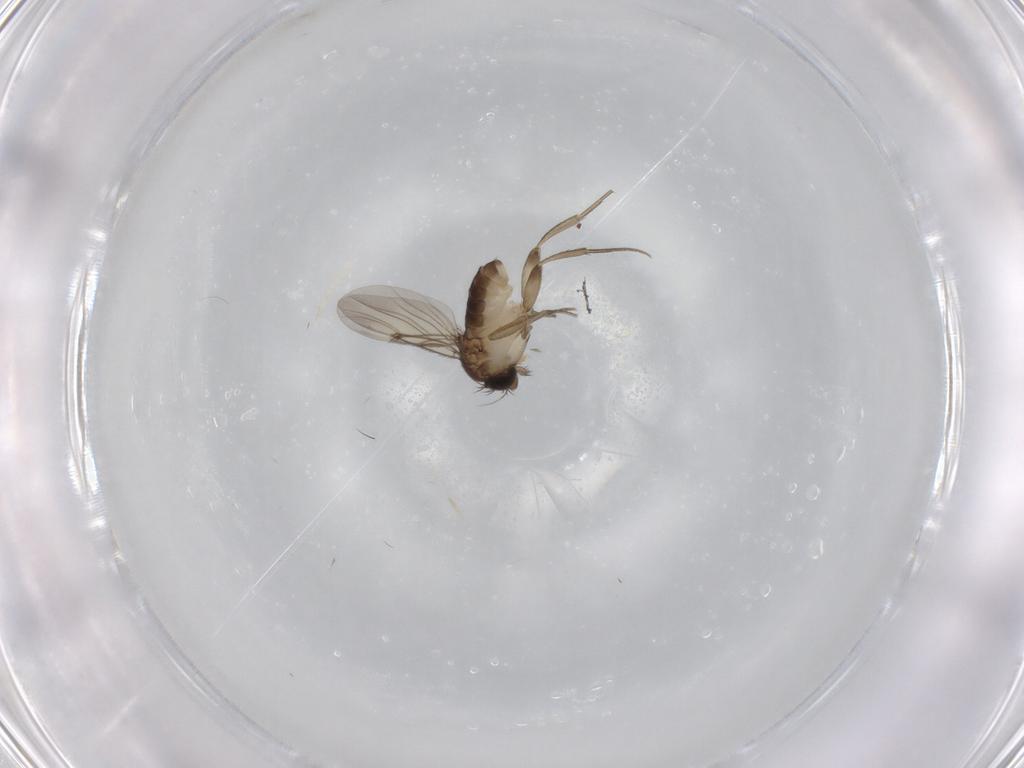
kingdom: Animalia
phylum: Arthropoda
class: Insecta
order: Diptera
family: Phoridae
